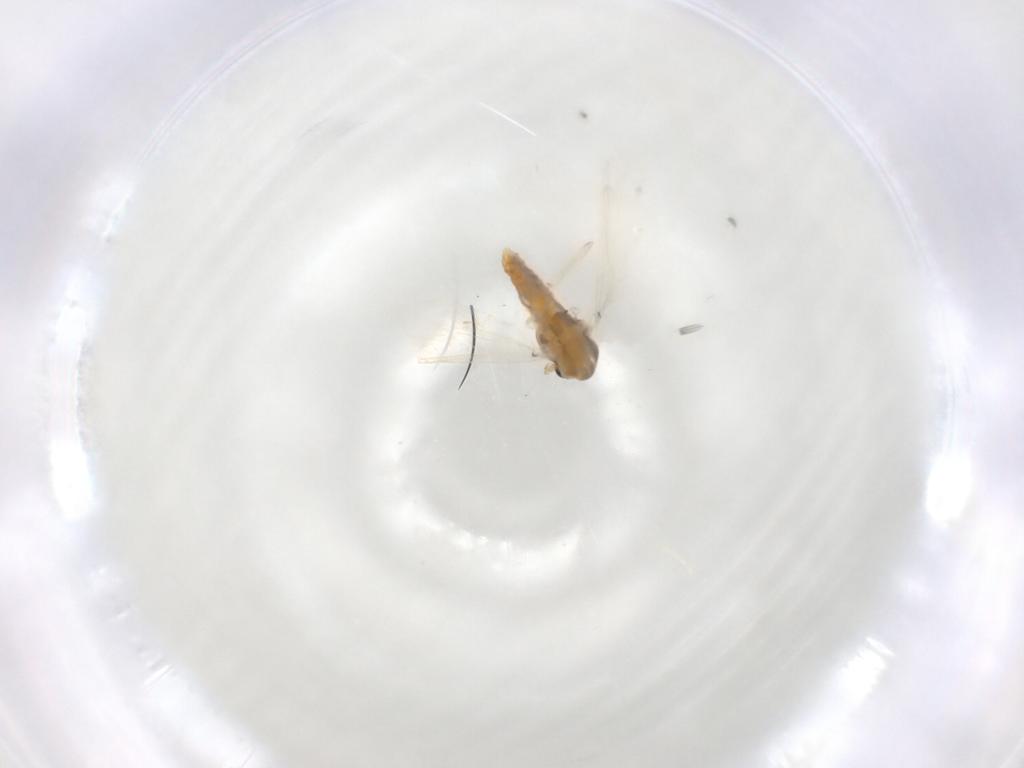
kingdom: Animalia
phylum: Arthropoda
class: Insecta
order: Diptera
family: Chironomidae
